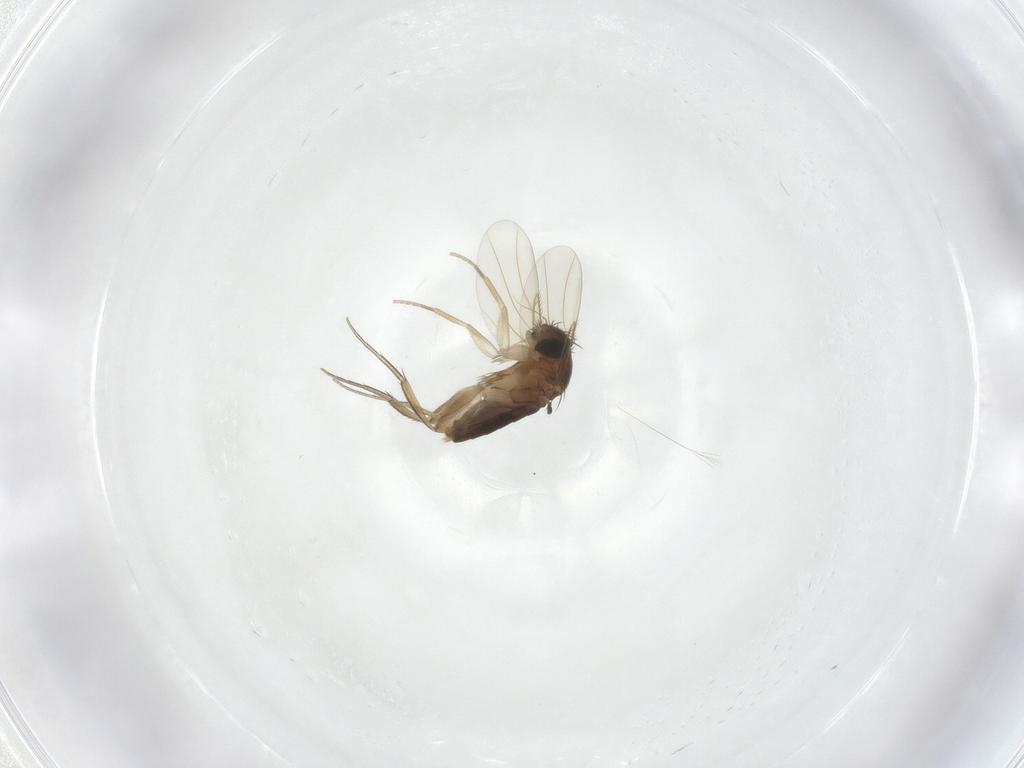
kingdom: Animalia
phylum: Arthropoda
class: Insecta
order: Diptera
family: Phoridae
